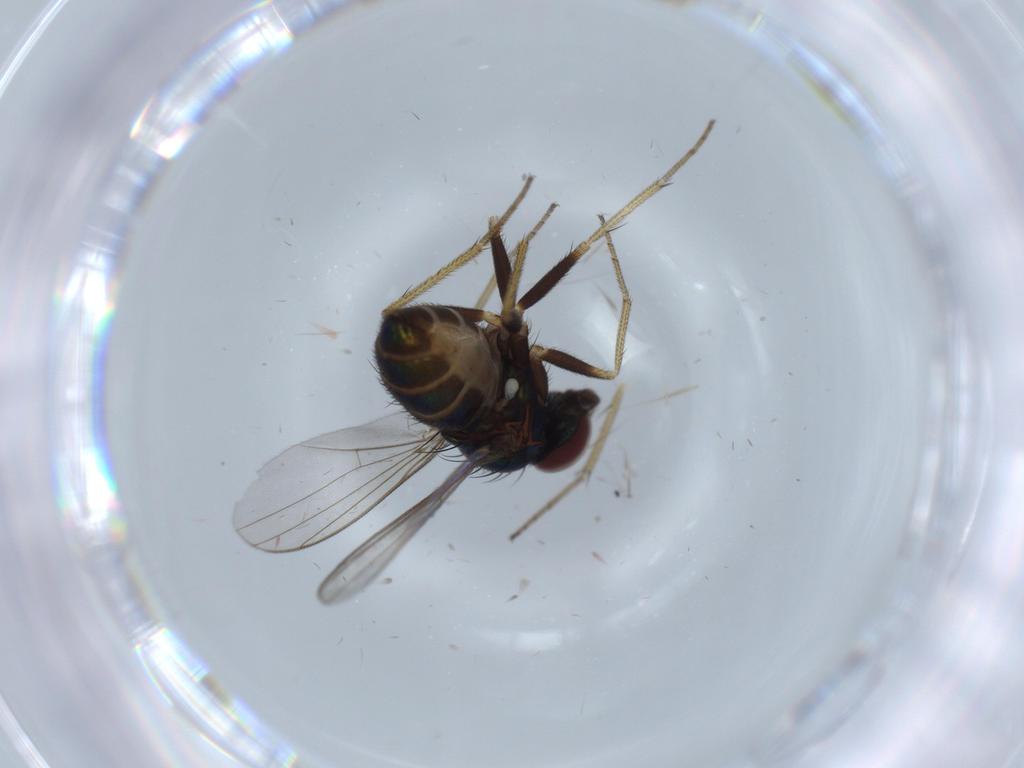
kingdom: Animalia
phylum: Arthropoda
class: Insecta
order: Diptera
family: Chironomidae
